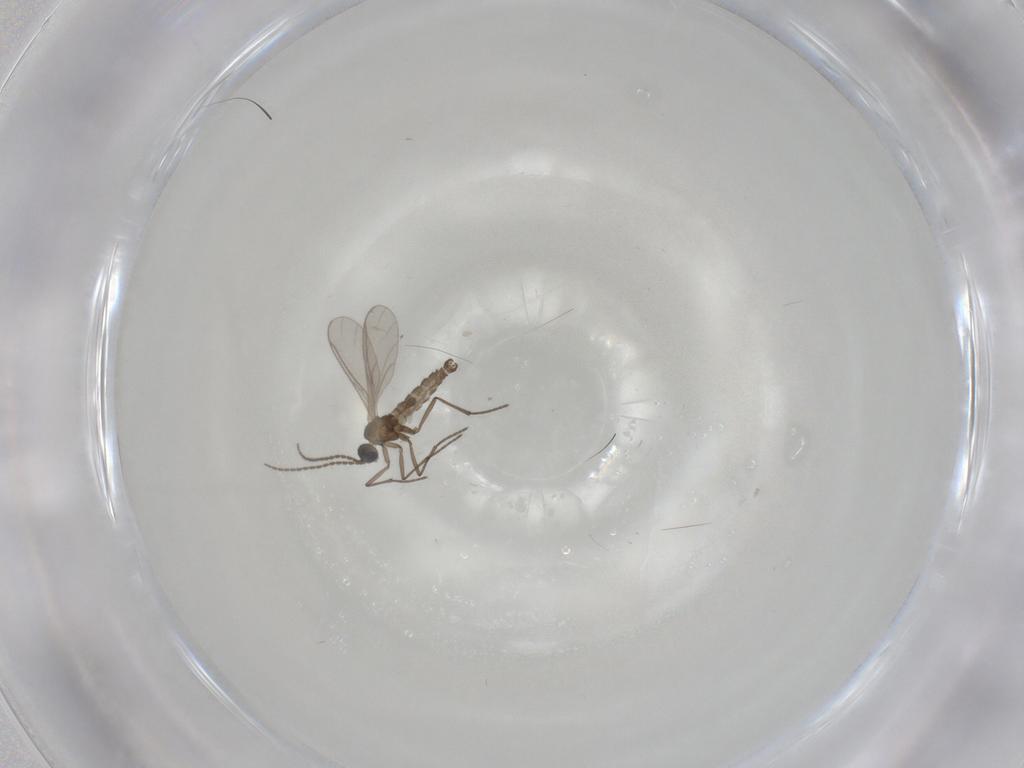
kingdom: Animalia
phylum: Arthropoda
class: Insecta
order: Diptera
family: Sciaridae
